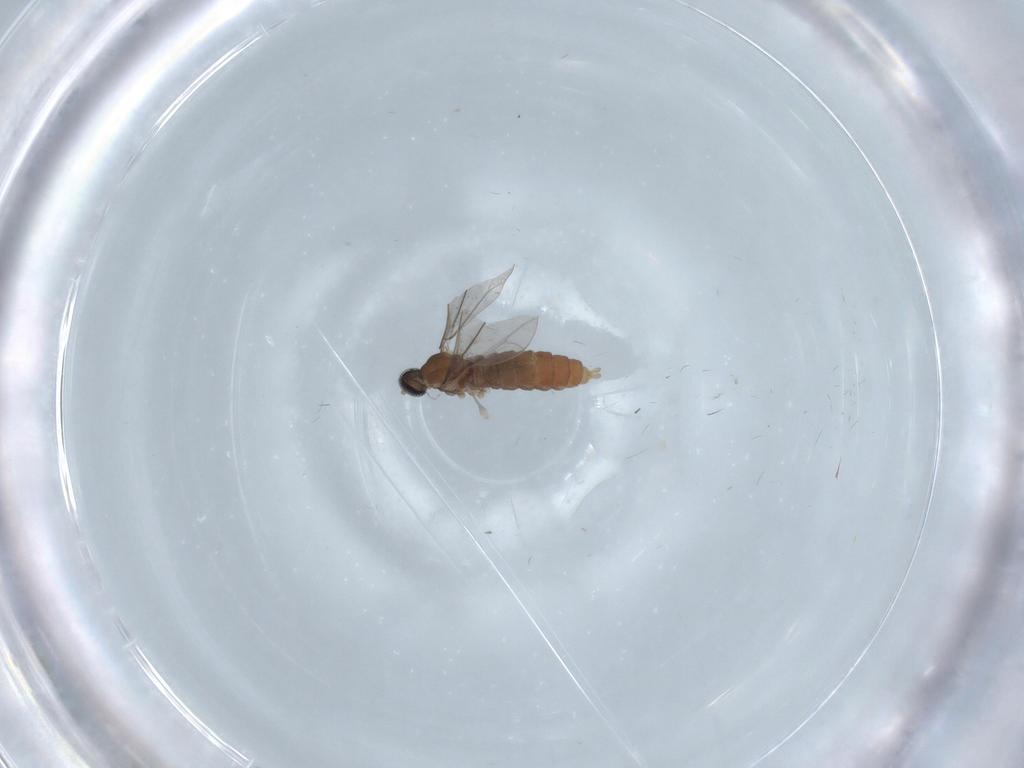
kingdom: Animalia
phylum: Arthropoda
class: Insecta
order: Diptera
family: Cecidomyiidae
